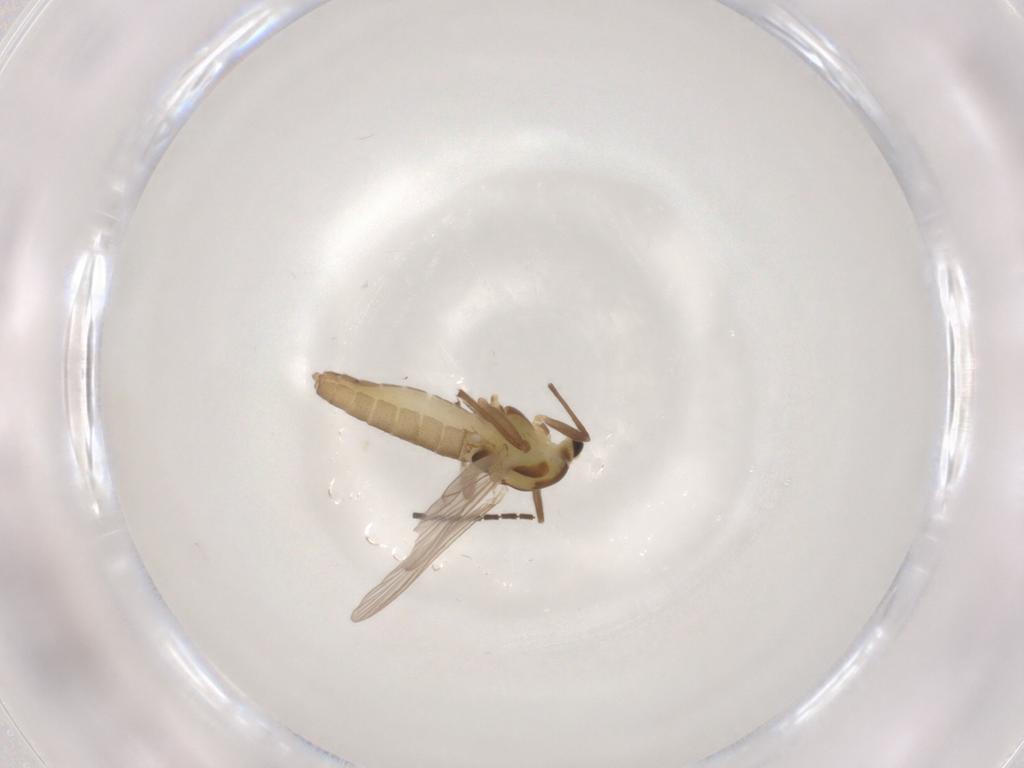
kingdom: Animalia
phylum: Arthropoda
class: Insecta
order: Diptera
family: Chironomidae
